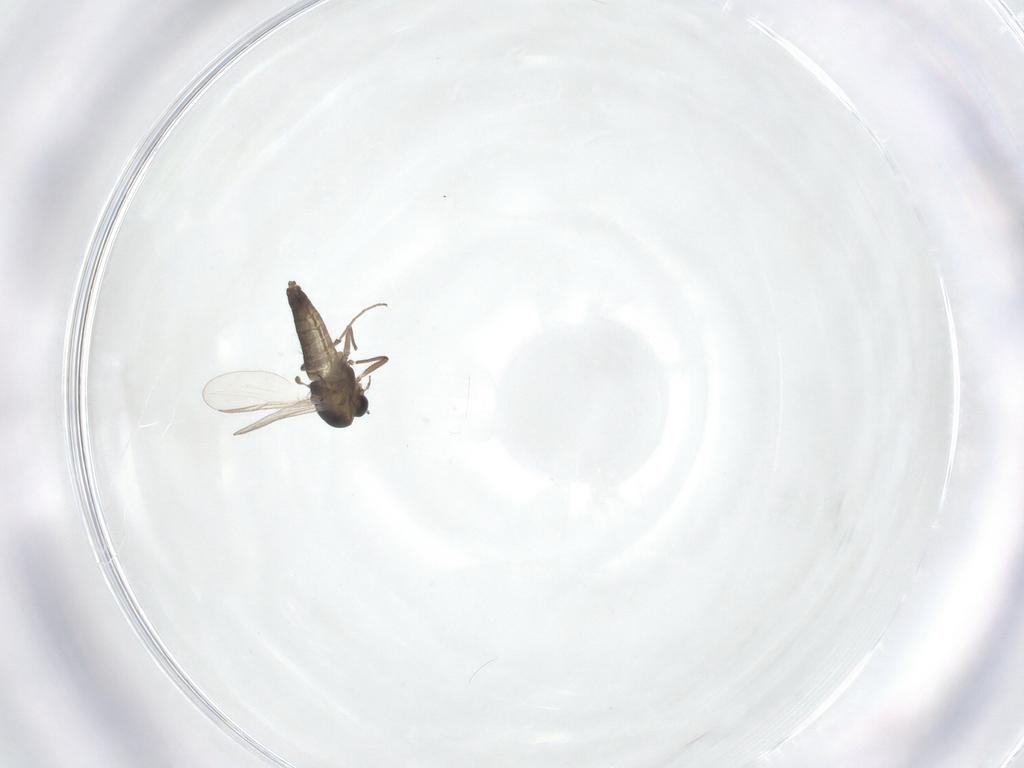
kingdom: Animalia
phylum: Arthropoda
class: Insecta
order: Diptera
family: Chironomidae
